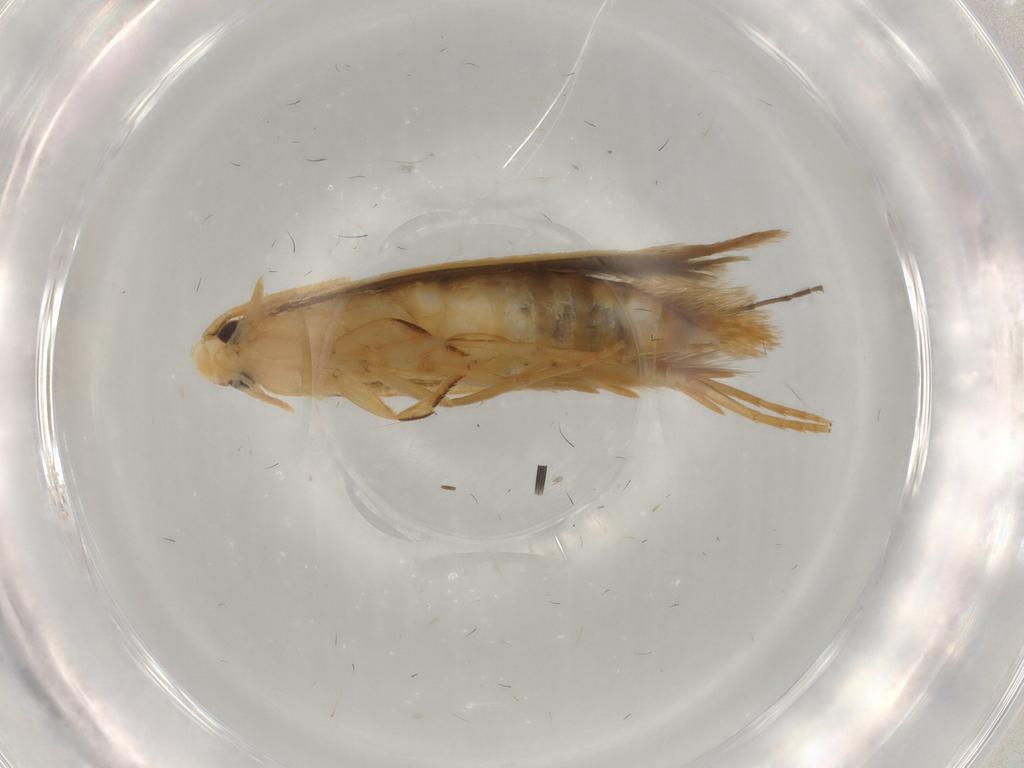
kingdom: Animalia
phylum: Arthropoda
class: Insecta
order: Lepidoptera
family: Tineidae
